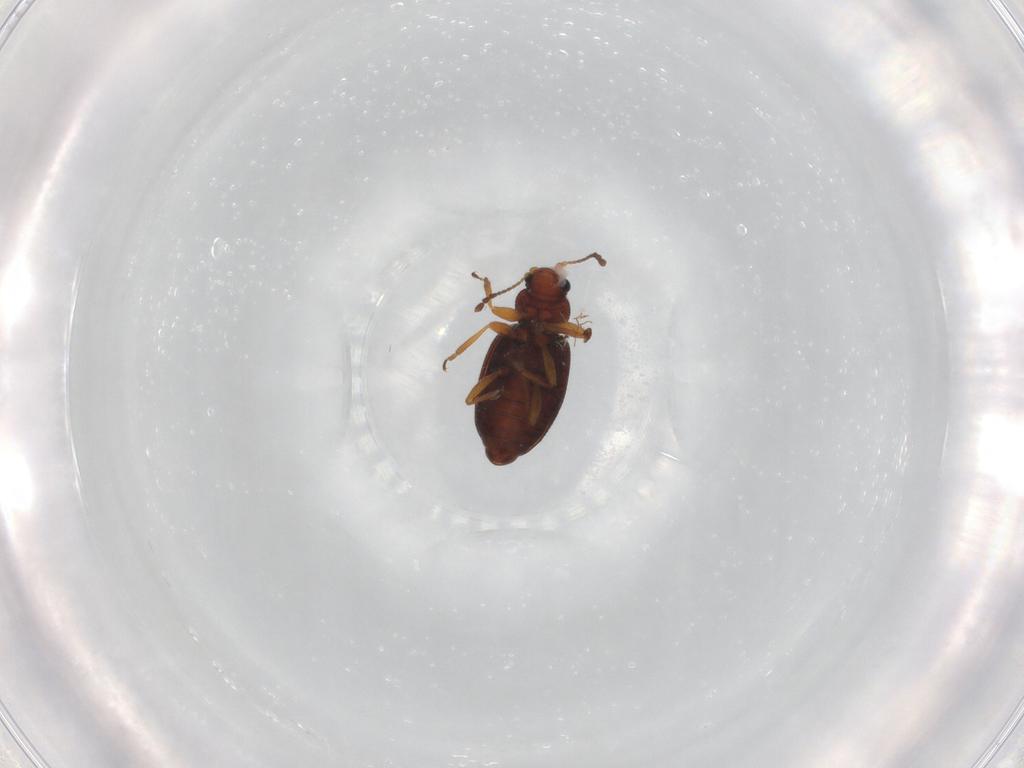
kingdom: Animalia
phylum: Arthropoda
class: Insecta
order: Coleoptera
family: Latridiidae
